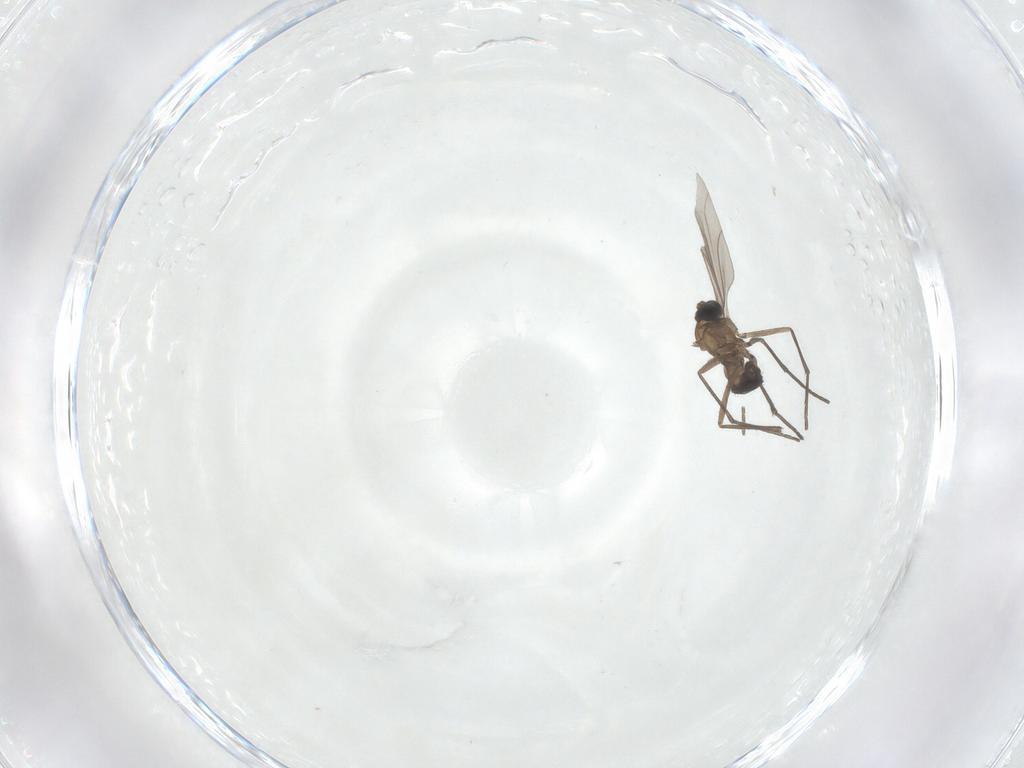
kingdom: Animalia
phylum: Arthropoda
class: Insecta
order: Diptera
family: Sciaridae
